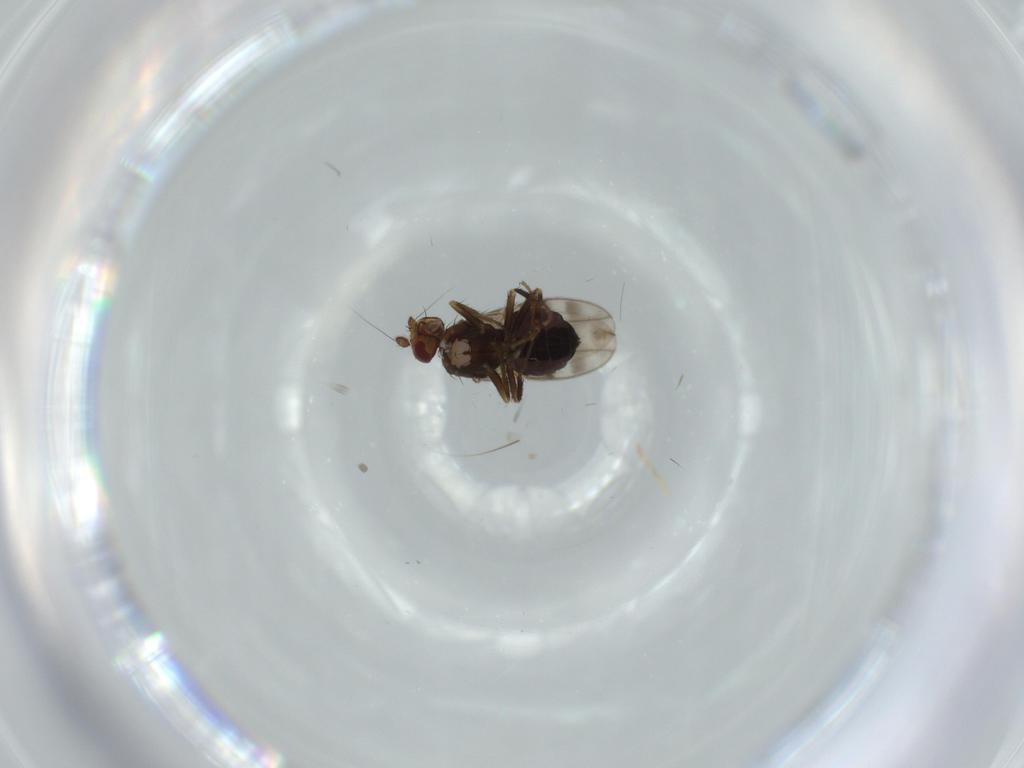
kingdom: Animalia
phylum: Arthropoda
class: Insecta
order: Diptera
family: Sphaeroceridae
